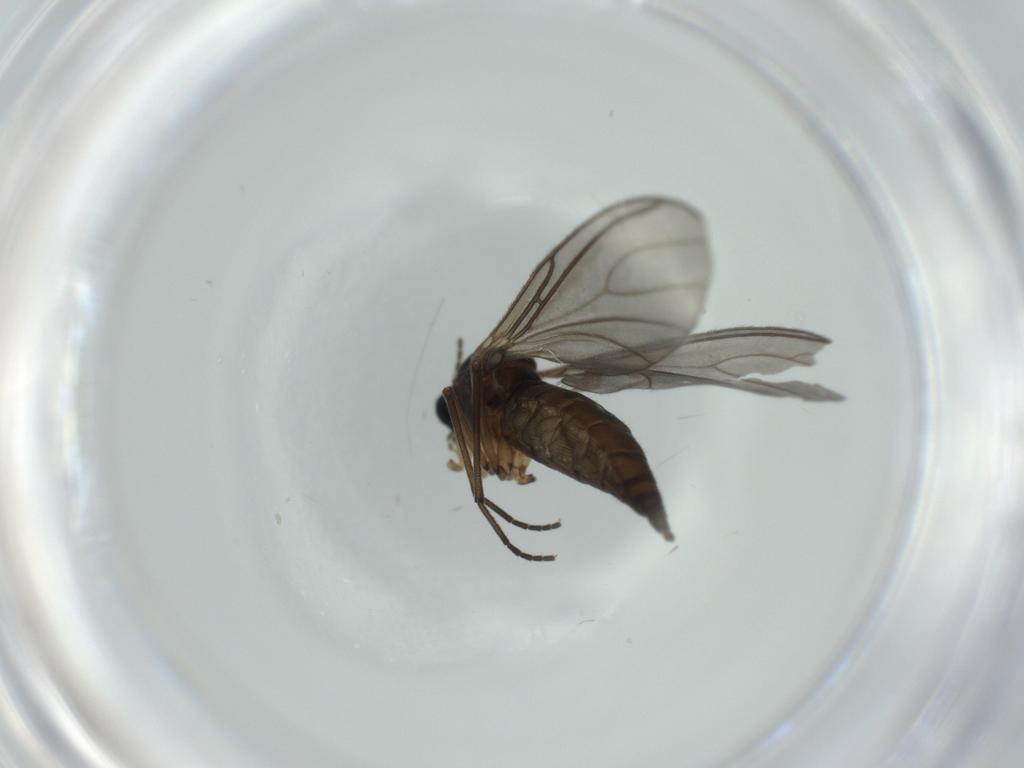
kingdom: Animalia
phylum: Arthropoda
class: Insecta
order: Diptera
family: Sciaridae
